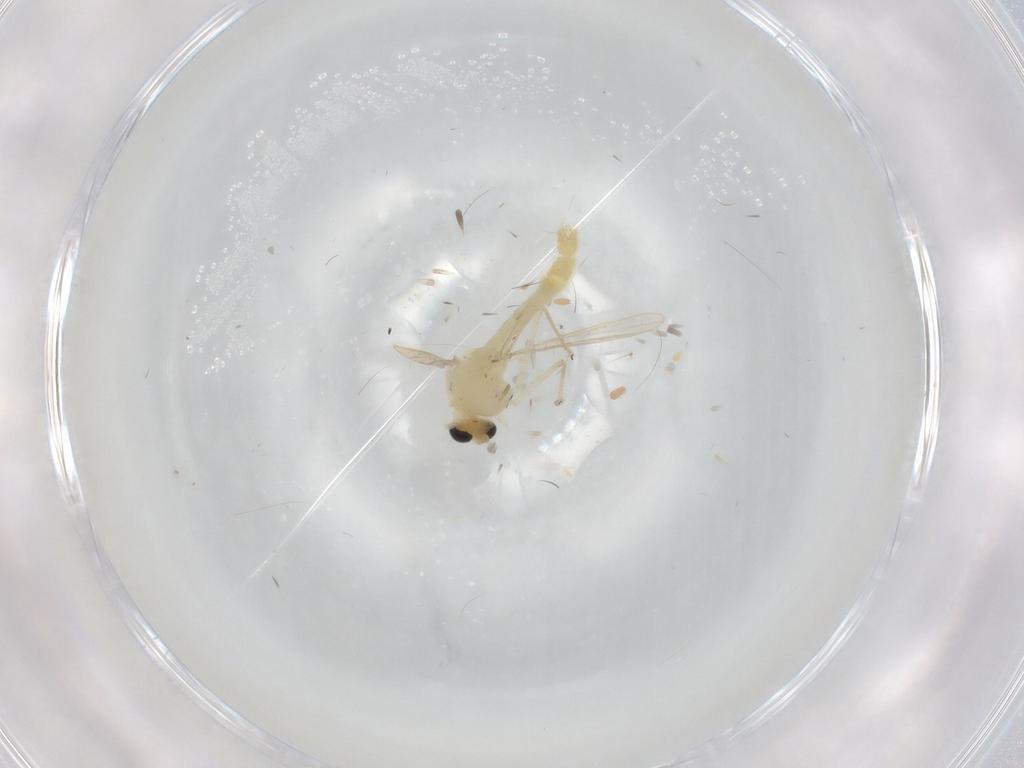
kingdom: Animalia
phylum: Arthropoda
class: Insecta
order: Diptera
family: Chironomidae
